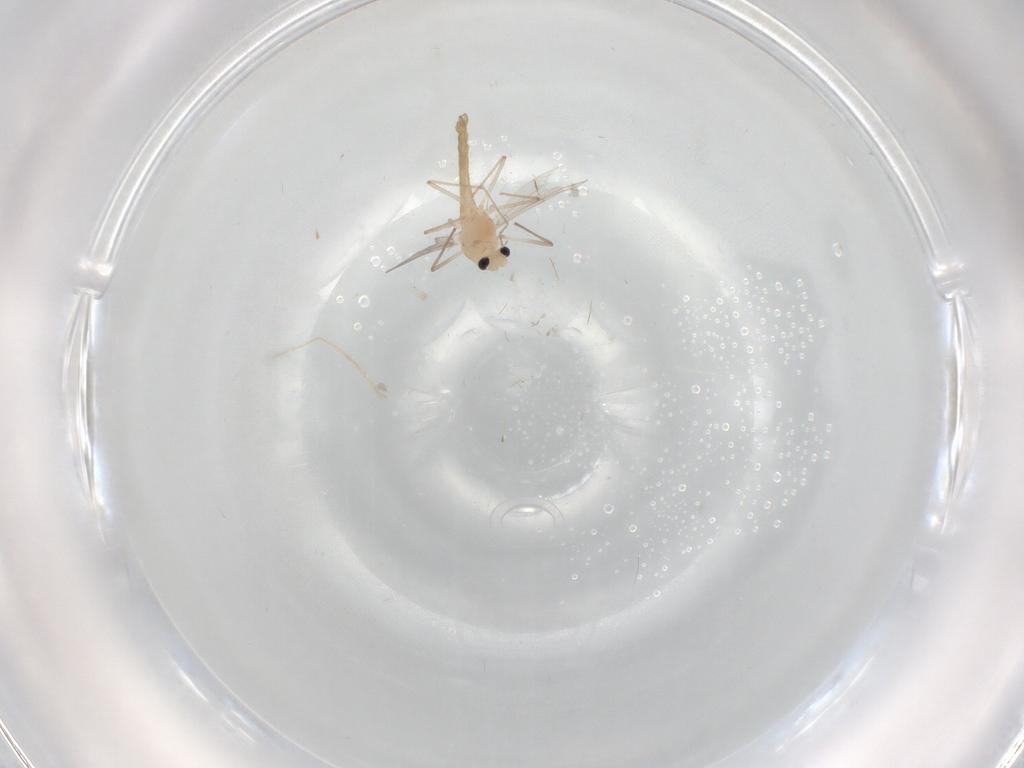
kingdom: Animalia
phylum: Arthropoda
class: Insecta
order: Diptera
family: Chironomidae
